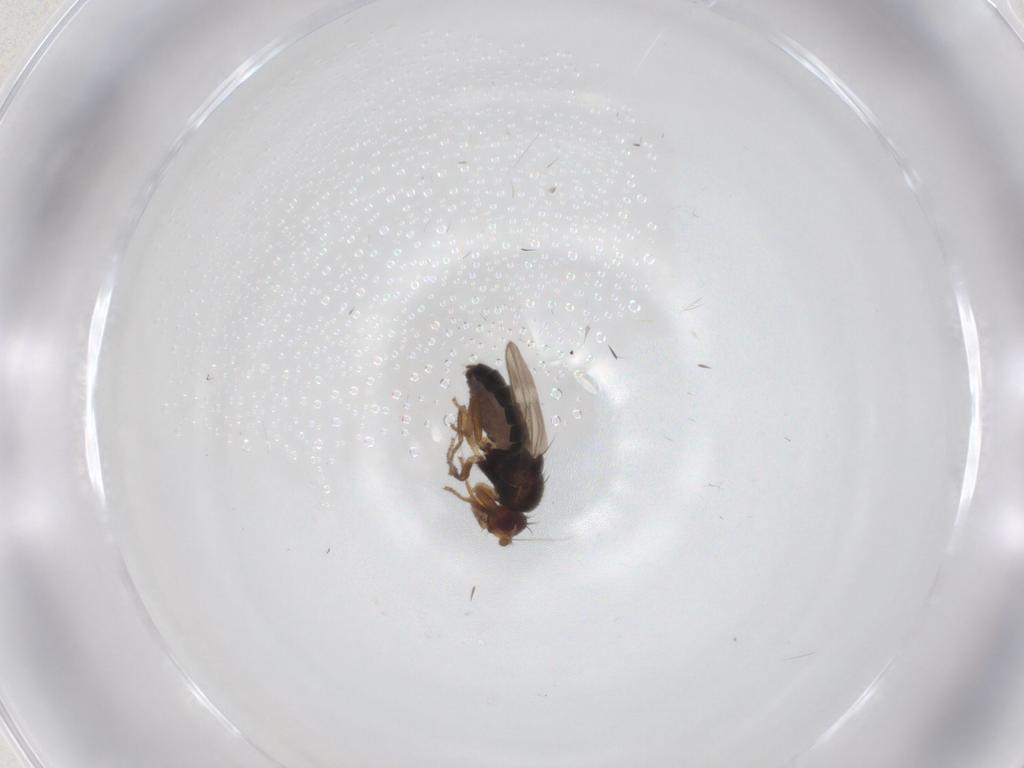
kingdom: Animalia
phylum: Arthropoda
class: Insecta
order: Diptera
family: Sphaeroceridae
